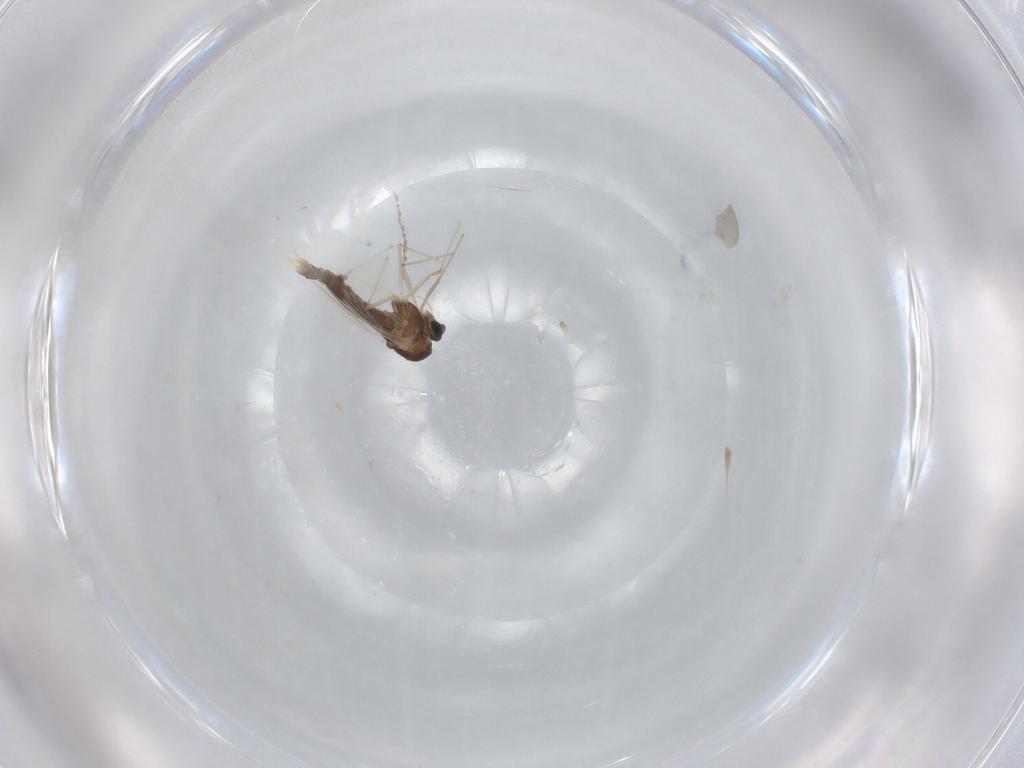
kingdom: Animalia
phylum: Arthropoda
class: Insecta
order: Diptera
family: Chironomidae
